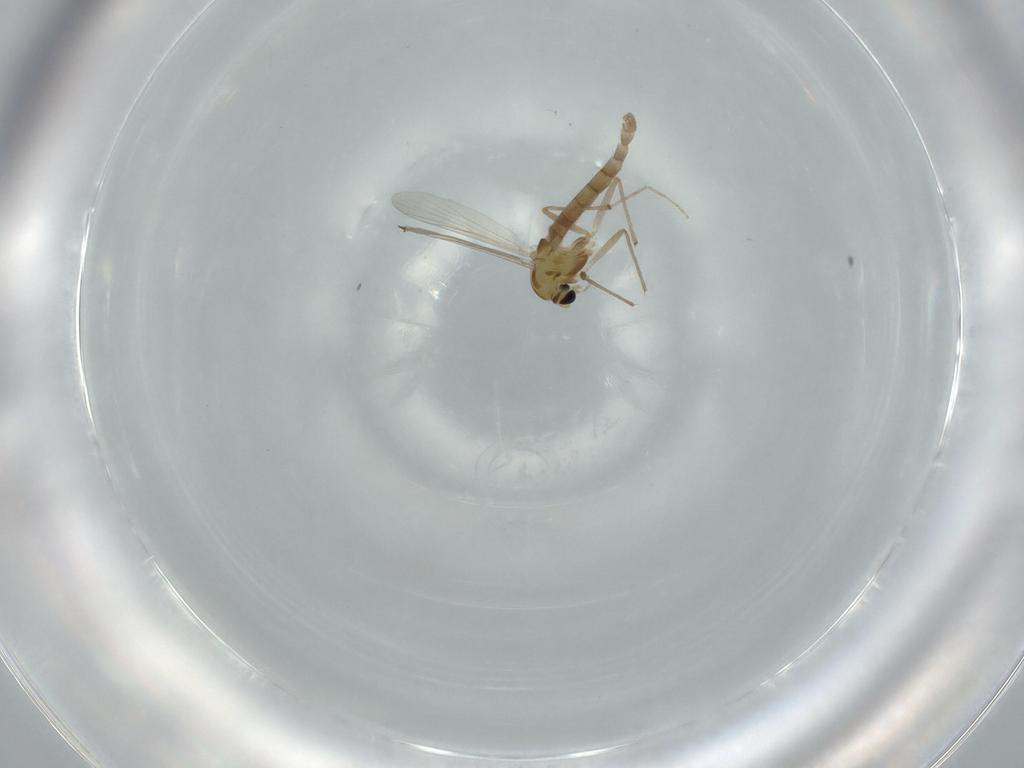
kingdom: Animalia
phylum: Arthropoda
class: Insecta
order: Diptera
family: Chironomidae
